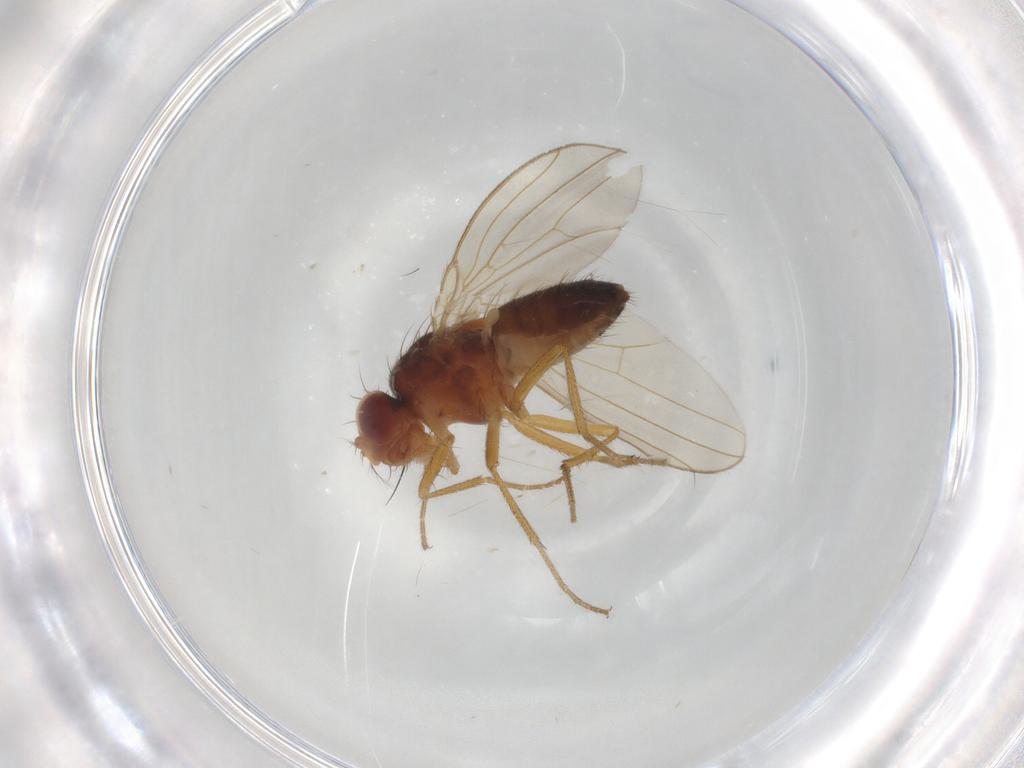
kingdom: Animalia
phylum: Arthropoda
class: Insecta
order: Diptera
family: Drosophilidae
